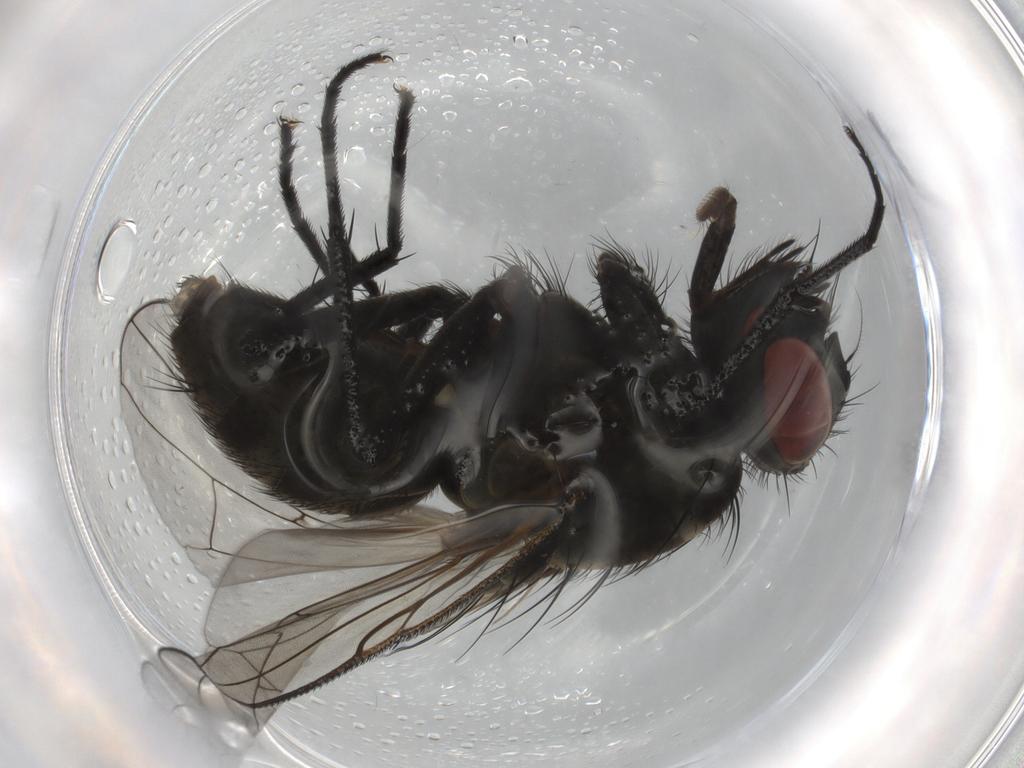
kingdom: Animalia
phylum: Arthropoda
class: Insecta
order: Diptera
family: Muscidae
